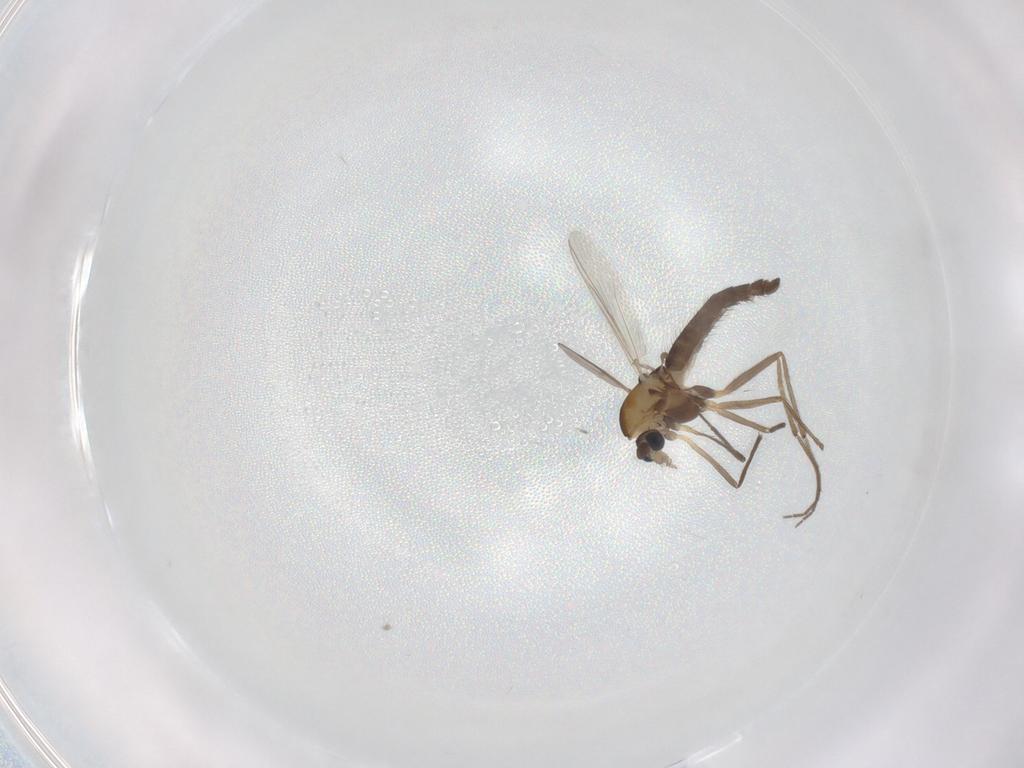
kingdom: Animalia
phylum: Arthropoda
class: Insecta
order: Diptera
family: Chironomidae
